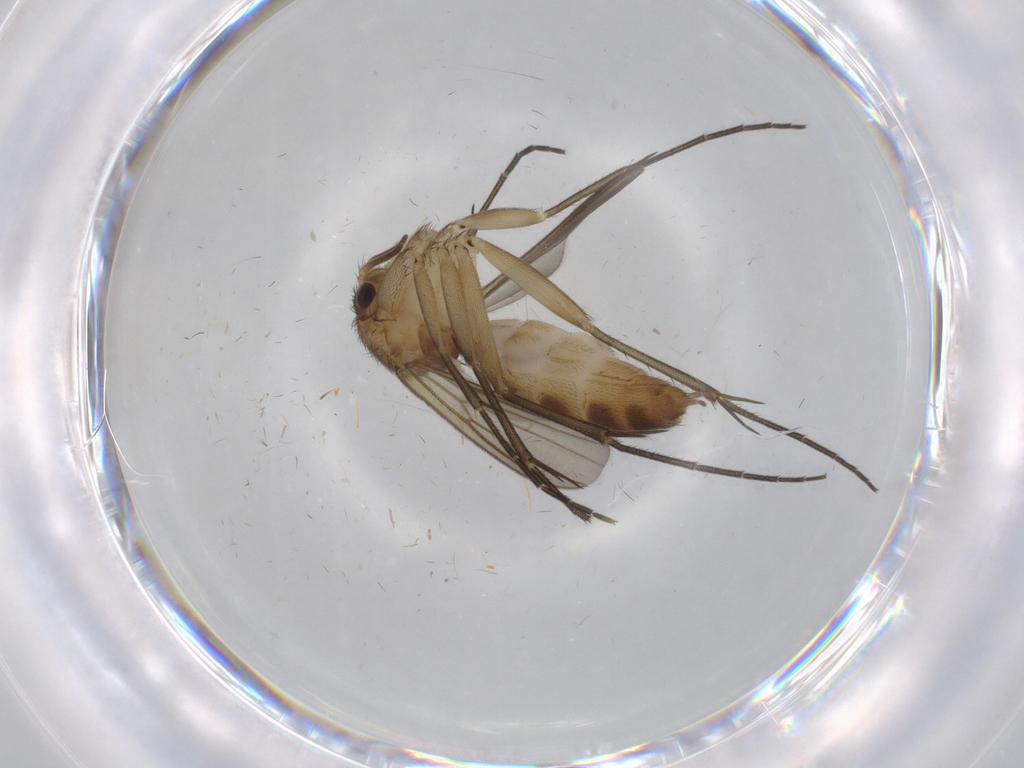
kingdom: Animalia
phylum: Arthropoda
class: Insecta
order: Diptera
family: Mycetophilidae
